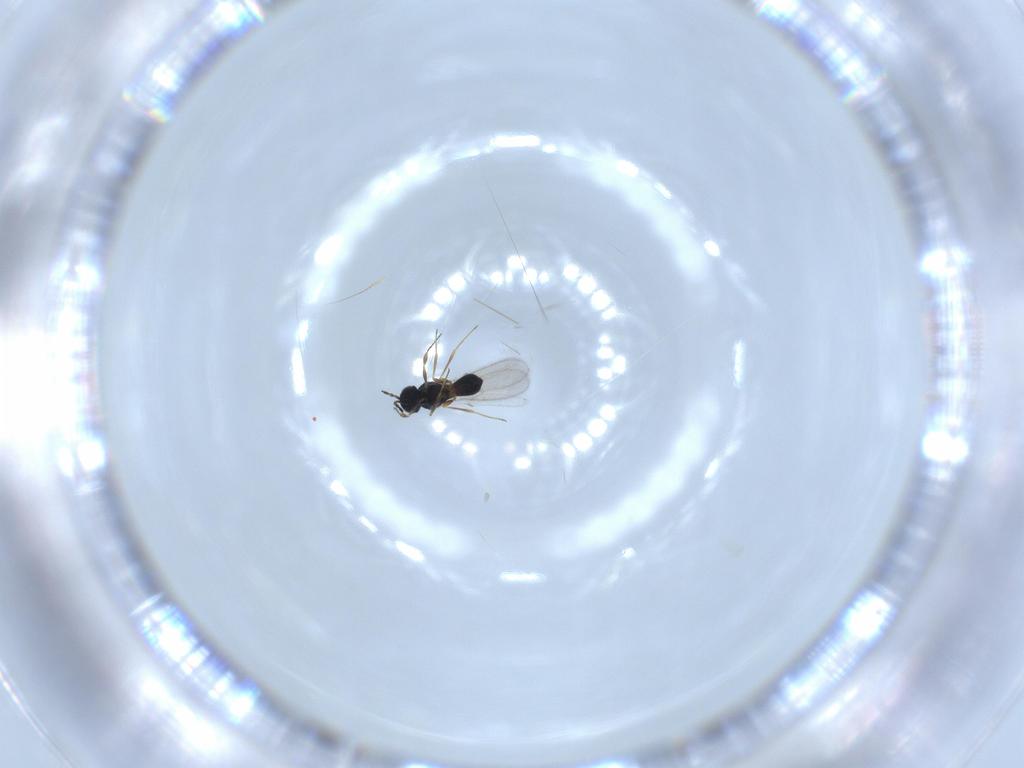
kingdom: Animalia
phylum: Arthropoda
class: Insecta
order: Hymenoptera
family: Scelionidae
